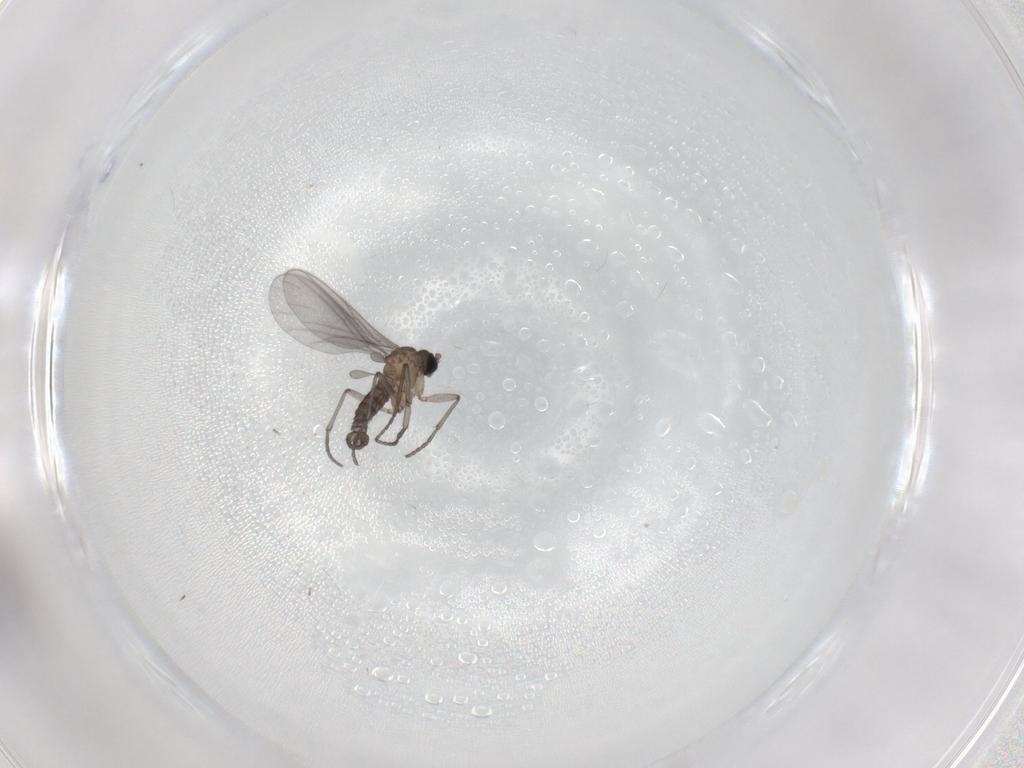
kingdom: Animalia
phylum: Arthropoda
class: Insecta
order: Diptera
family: Sciaridae
